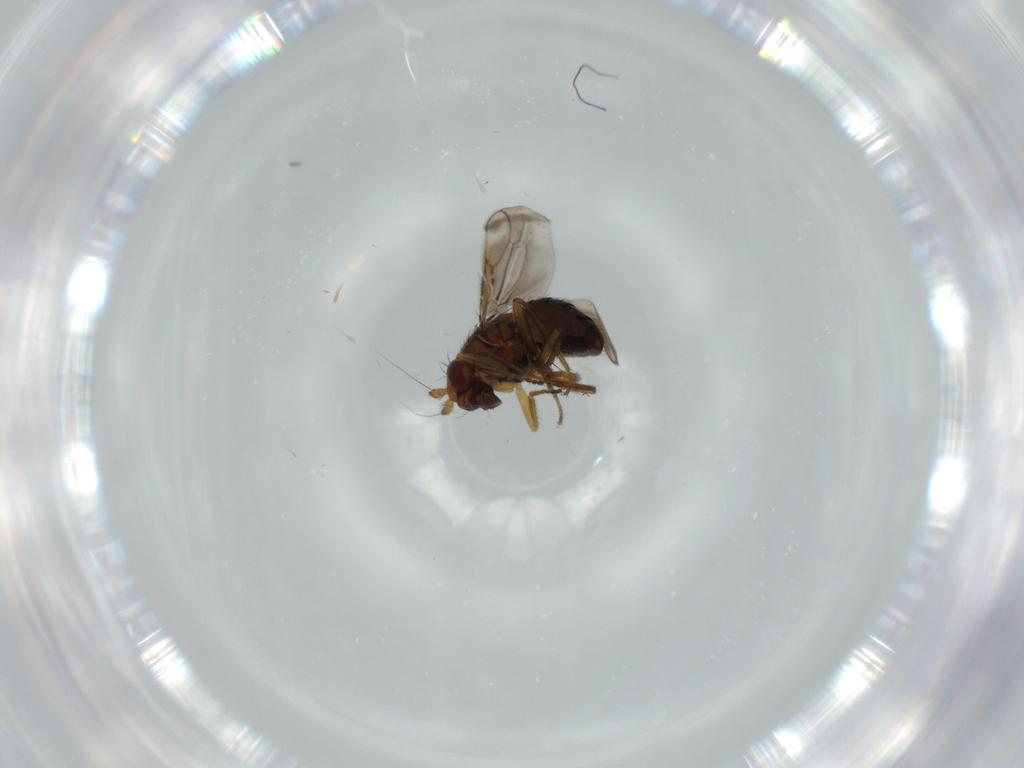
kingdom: Animalia
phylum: Arthropoda
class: Insecta
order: Diptera
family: Sphaeroceridae
